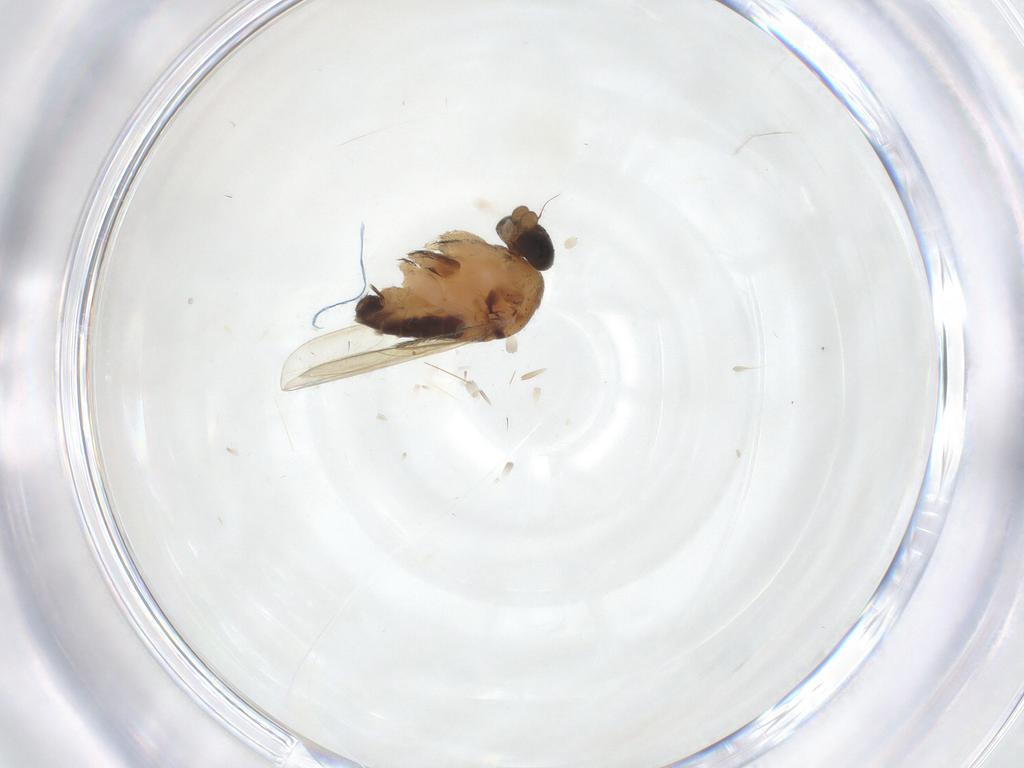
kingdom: Animalia
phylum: Arthropoda
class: Insecta
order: Diptera
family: Phoridae
